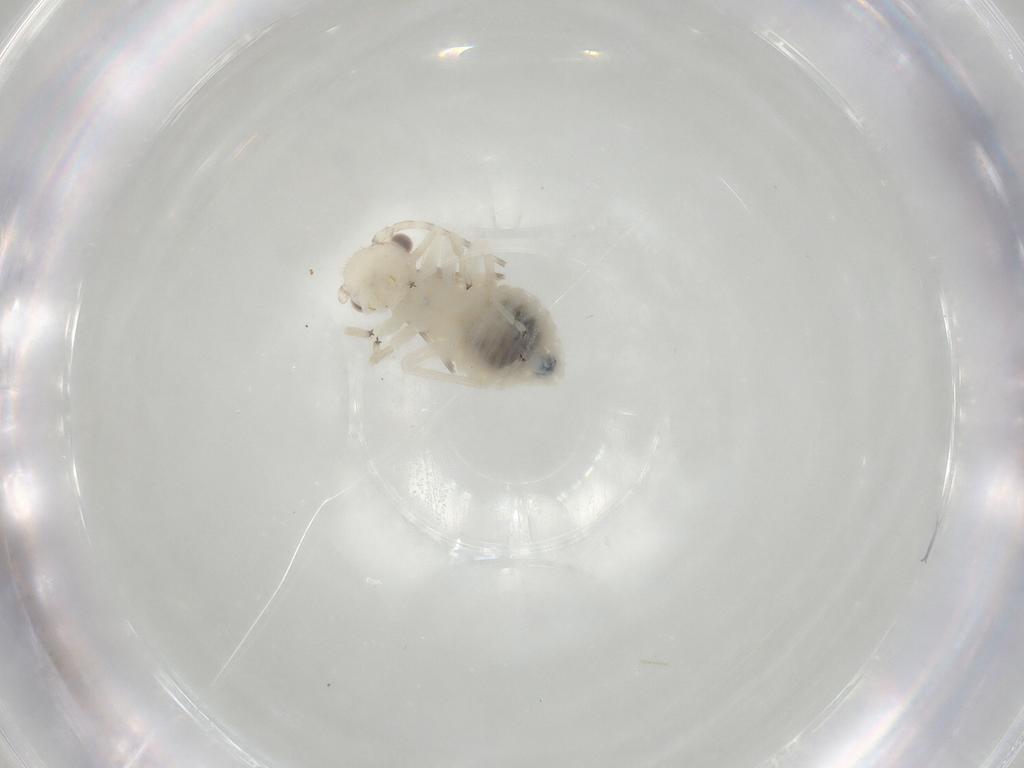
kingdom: Animalia
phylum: Arthropoda
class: Insecta
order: Psocodea
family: Amphipsocidae
